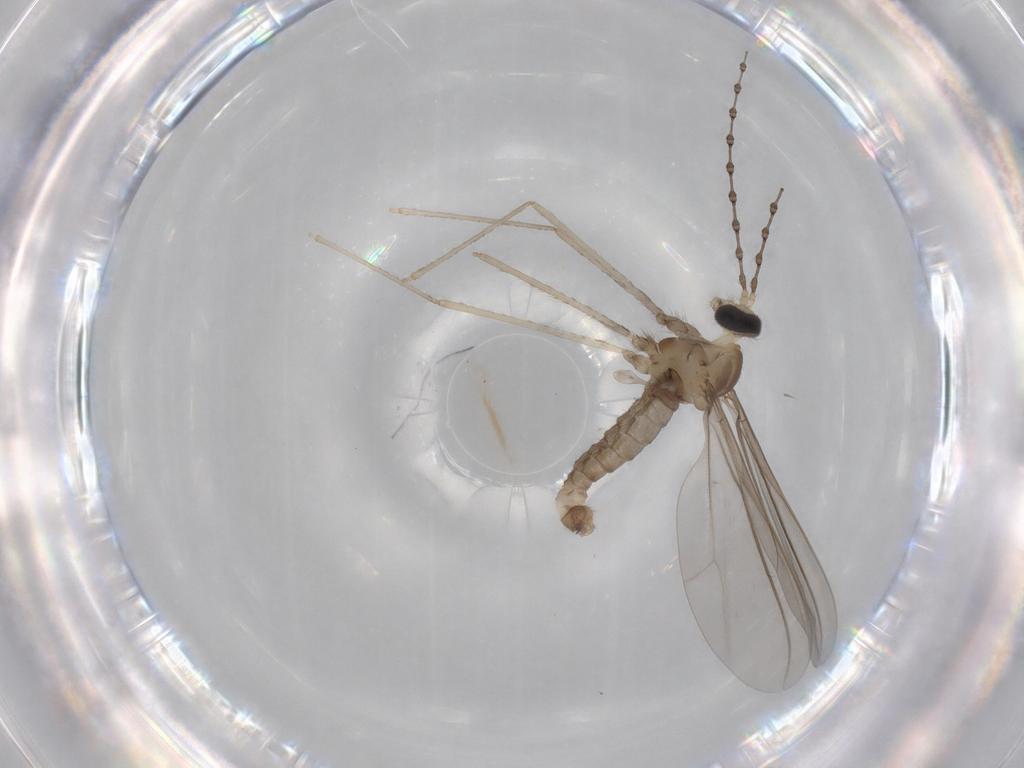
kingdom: Animalia
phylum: Arthropoda
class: Insecta
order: Diptera
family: Cecidomyiidae
